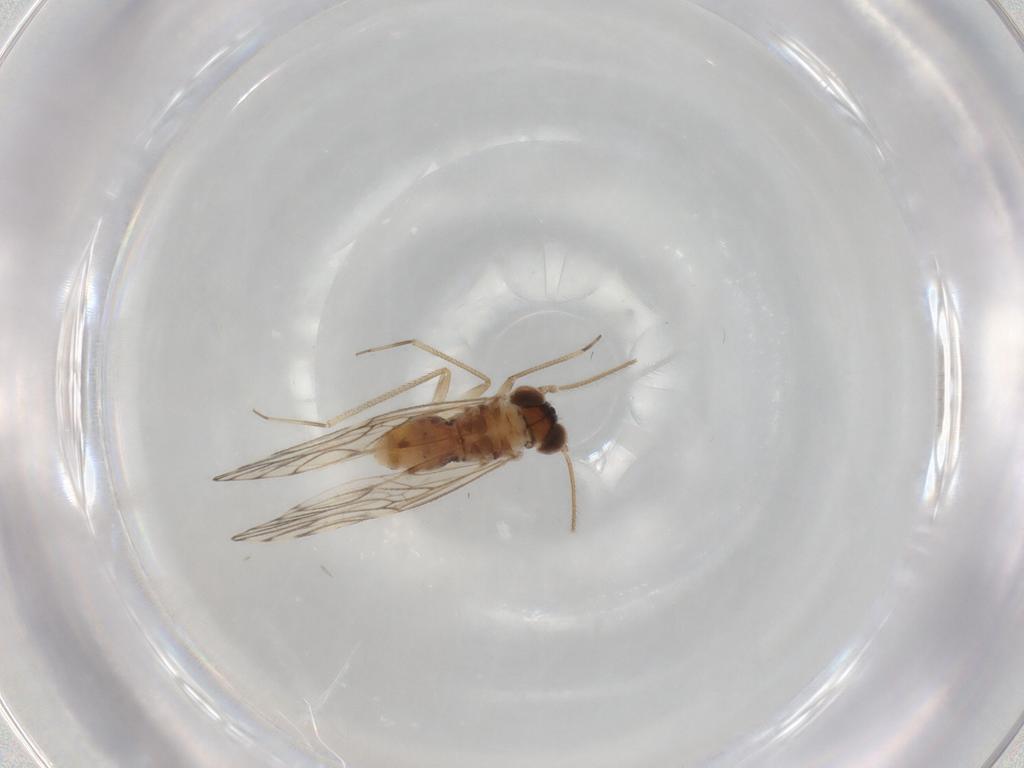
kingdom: Animalia
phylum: Arthropoda
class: Insecta
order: Psocodea
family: Epipsocidae
